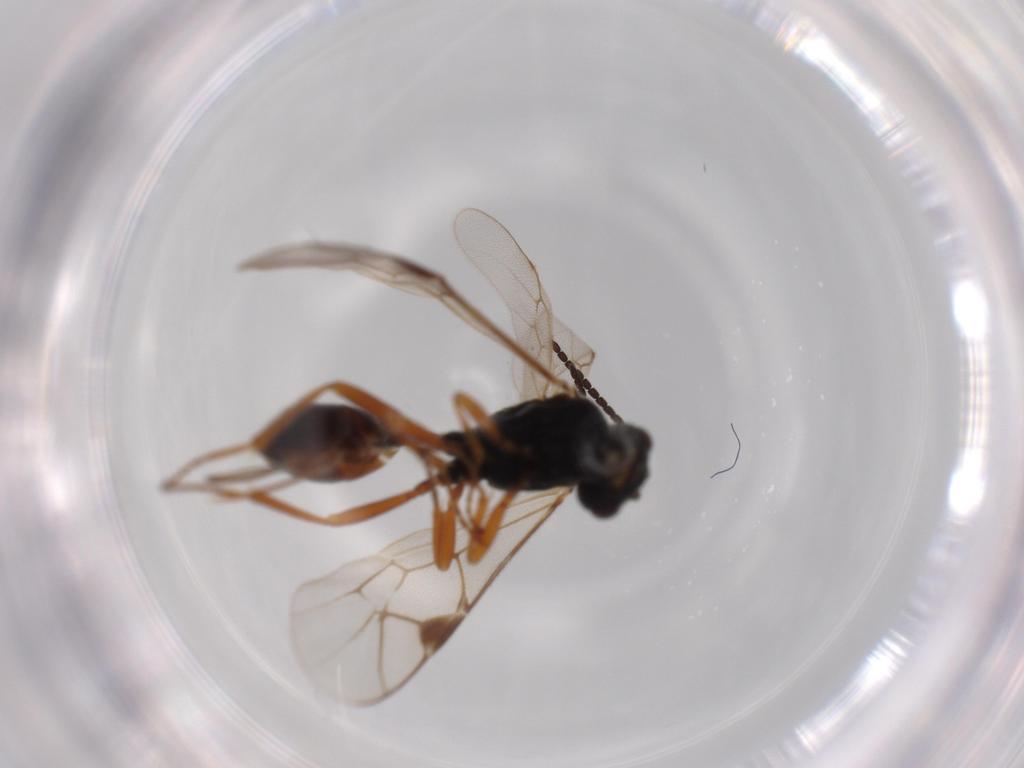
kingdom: Animalia
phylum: Arthropoda
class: Insecta
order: Hymenoptera
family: Ichneumonidae
